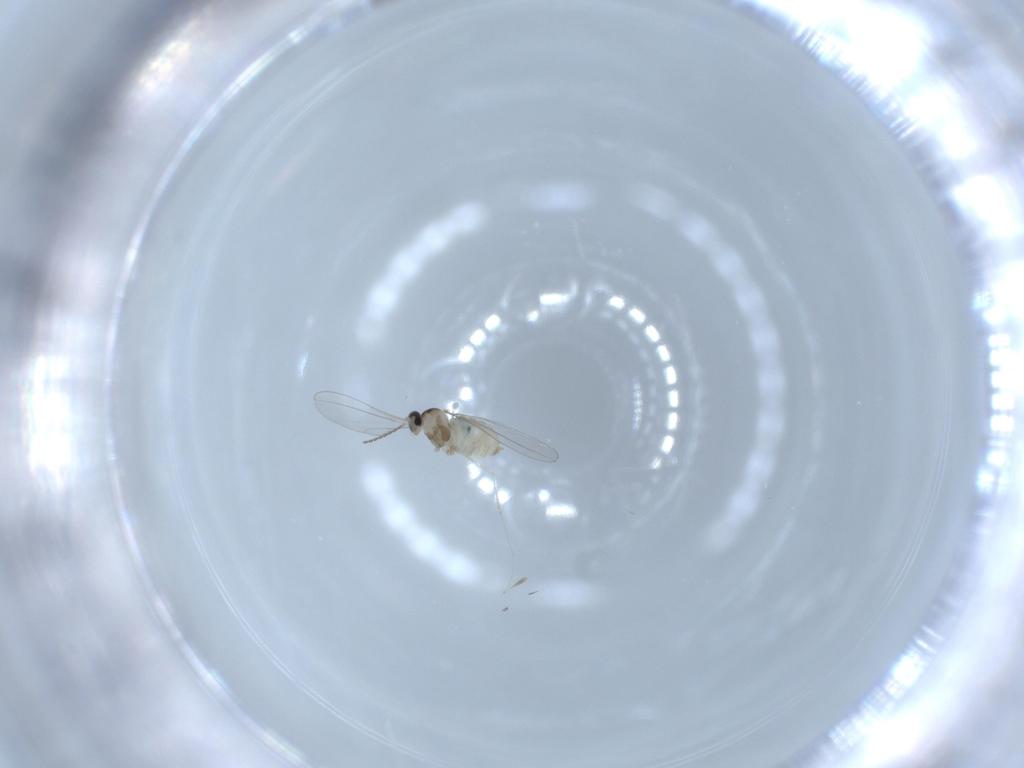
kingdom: Animalia
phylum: Arthropoda
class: Insecta
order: Diptera
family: Cecidomyiidae
